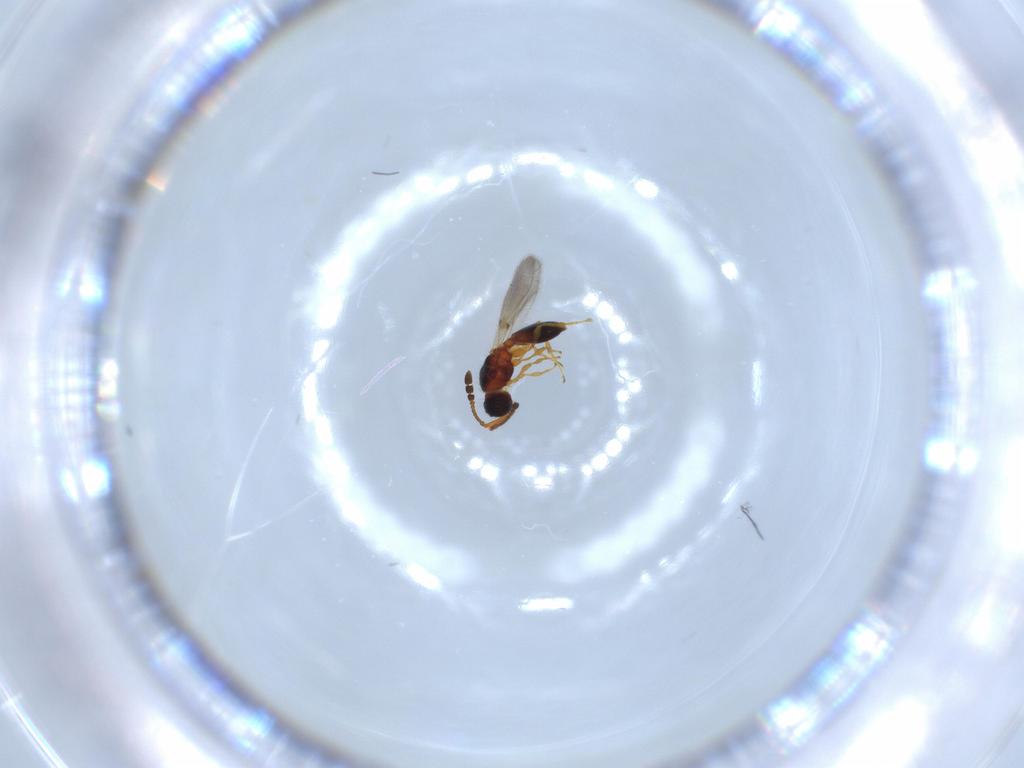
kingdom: Animalia
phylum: Arthropoda
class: Insecta
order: Hymenoptera
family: Diapriidae
